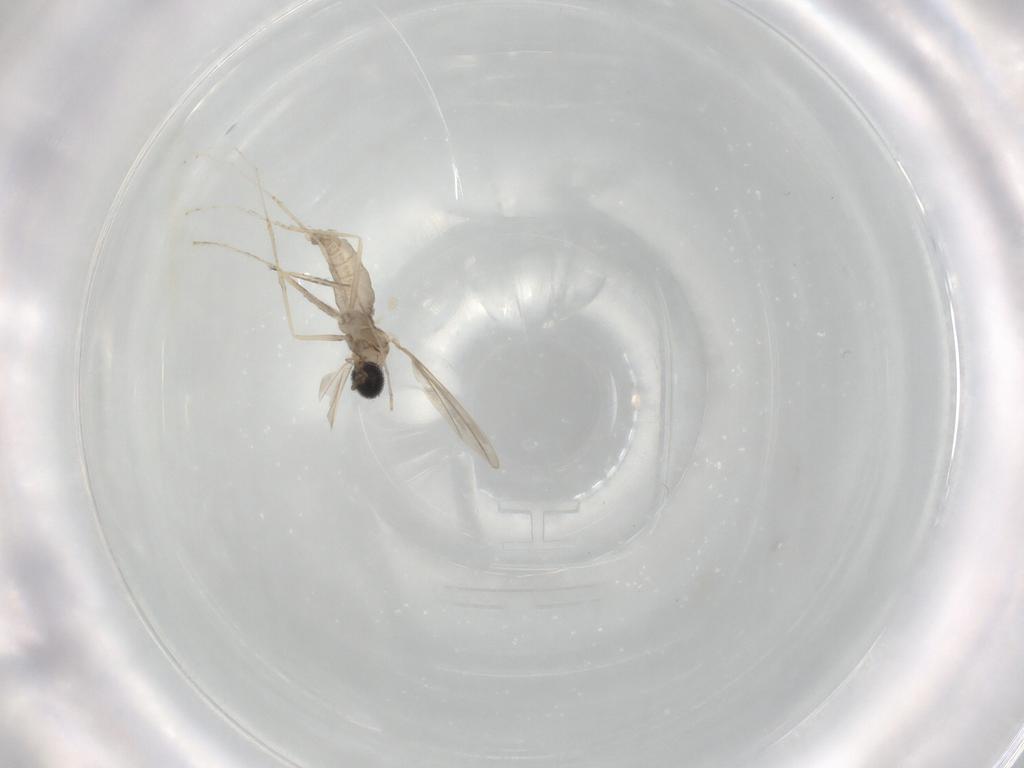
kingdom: Animalia
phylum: Arthropoda
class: Insecta
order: Diptera
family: Cecidomyiidae
